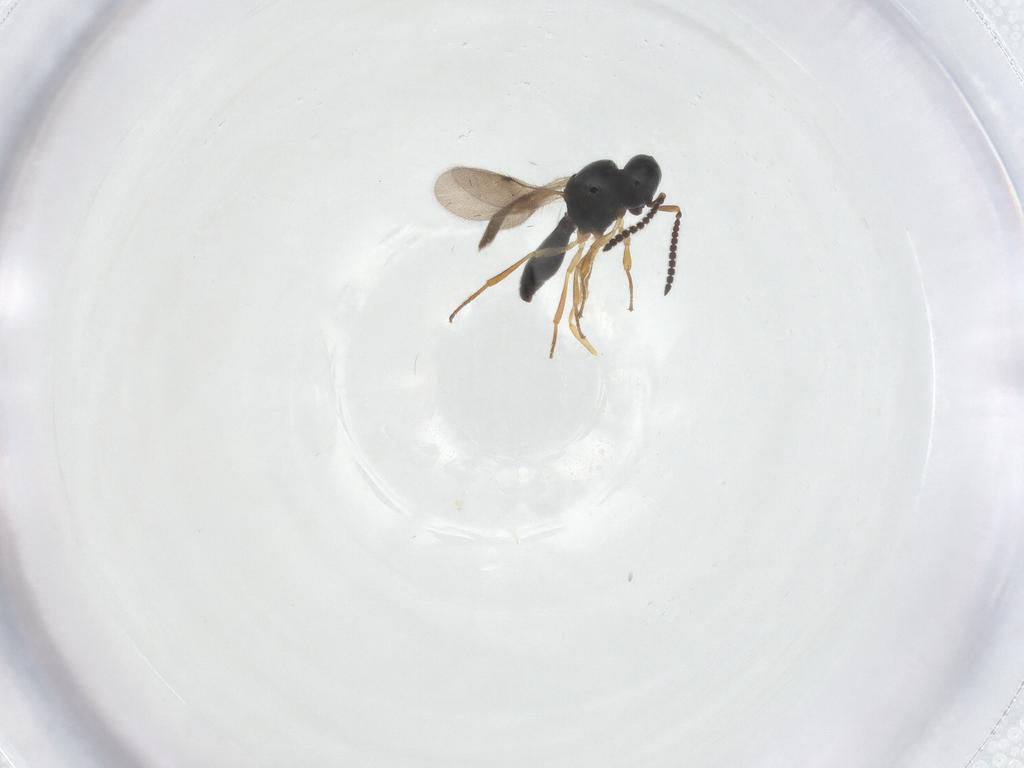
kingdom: Animalia
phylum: Arthropoda
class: Insecta
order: Hymenoptera
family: Scelionidae
